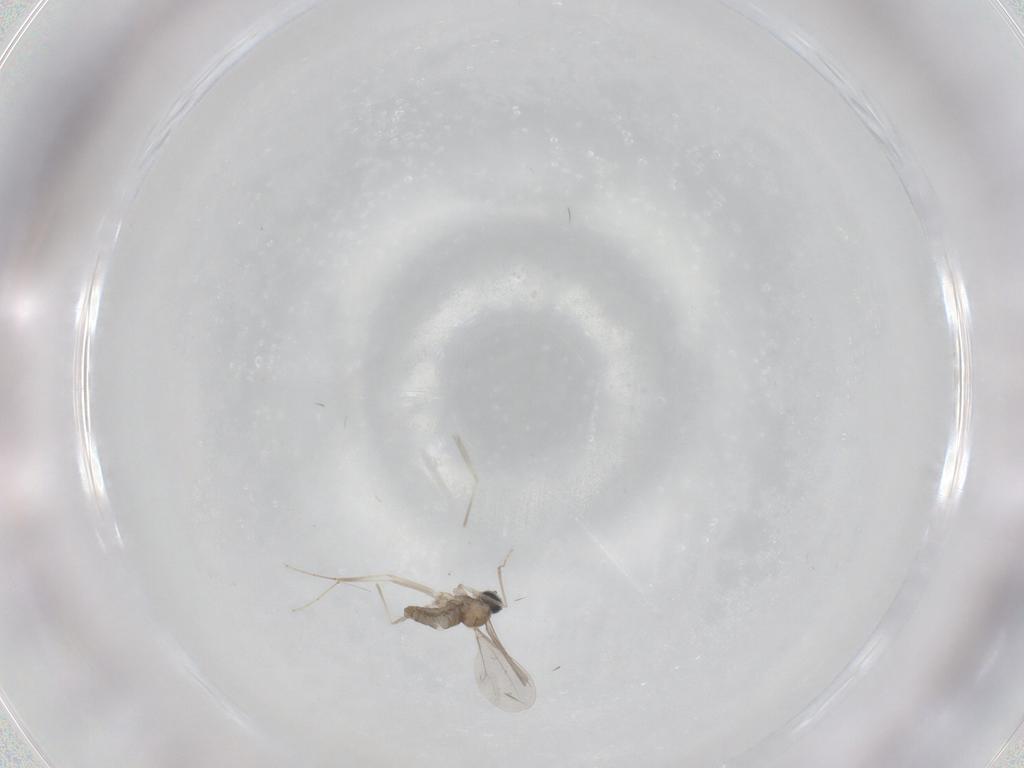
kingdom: Animalia
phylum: Arthropoda
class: Insecta
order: Diptera
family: Cecidomyiidae
